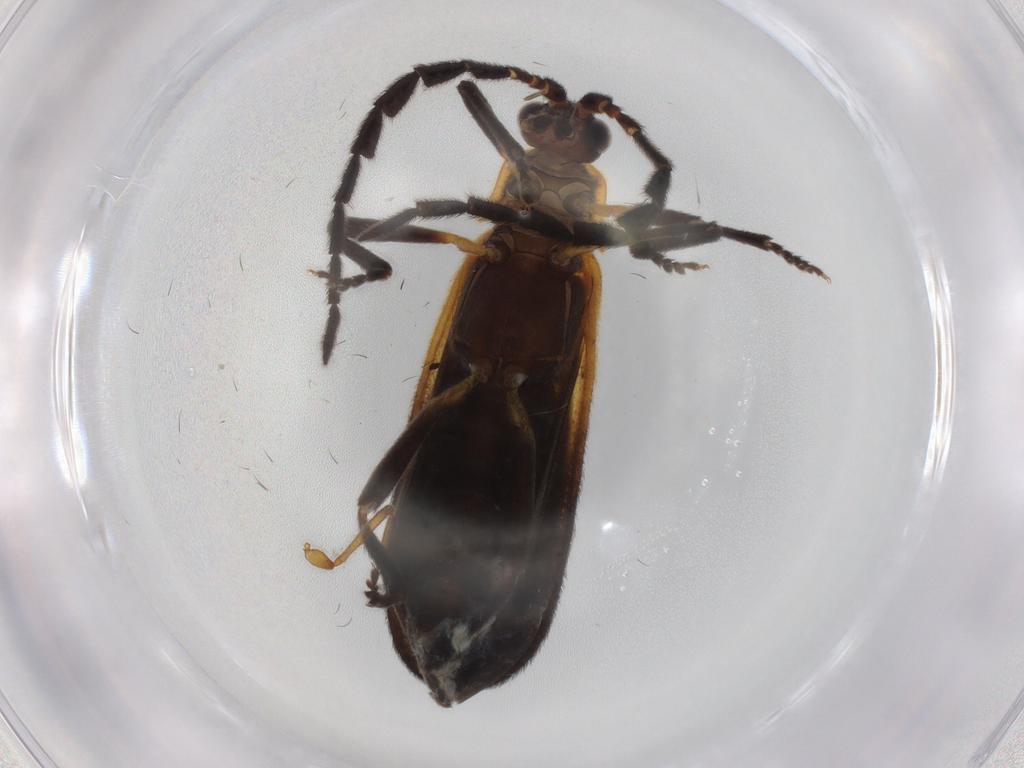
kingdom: Animalia
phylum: Arthropoda
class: Insecta
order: Coleoptera
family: Lycidae
